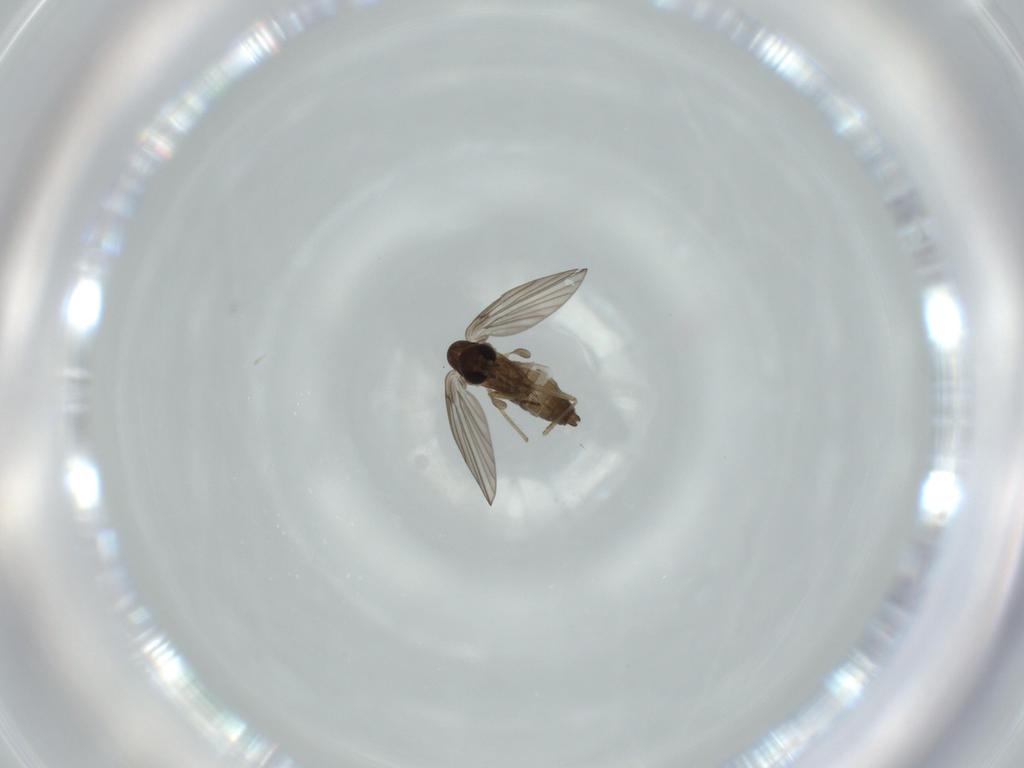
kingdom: Animalia
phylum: Arthropoda
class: Insecta
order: Diptera
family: Psychodidae
